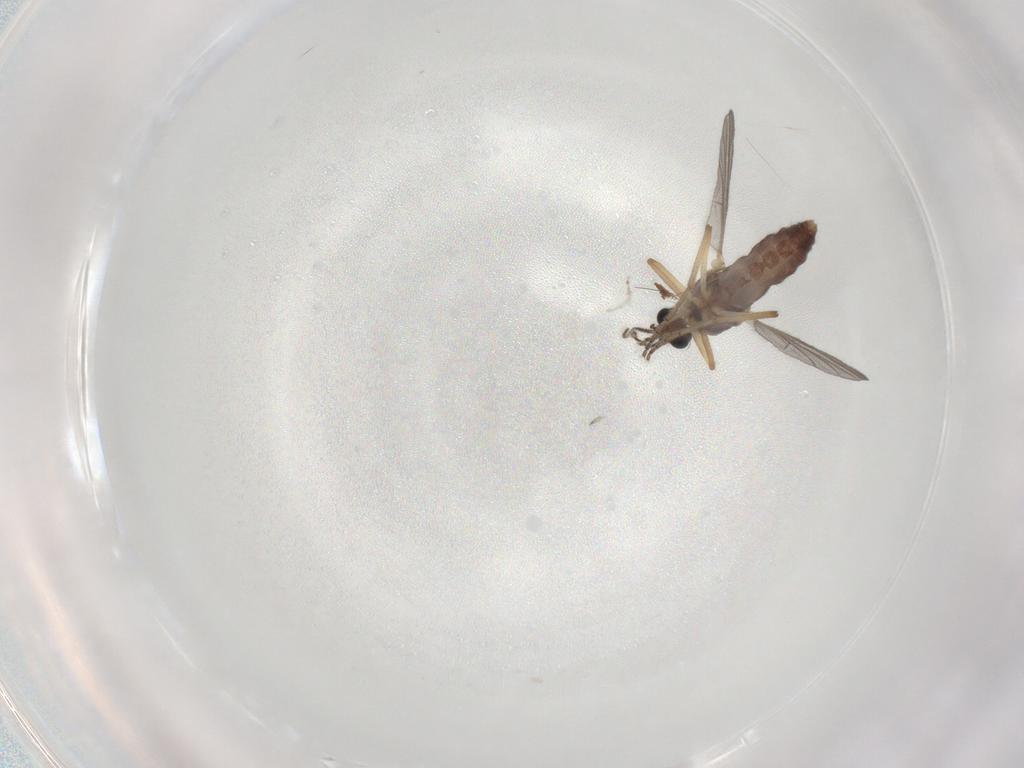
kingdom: Animalia
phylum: Arthropoda
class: Insecta
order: Diptera
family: Ceratopogonidae
